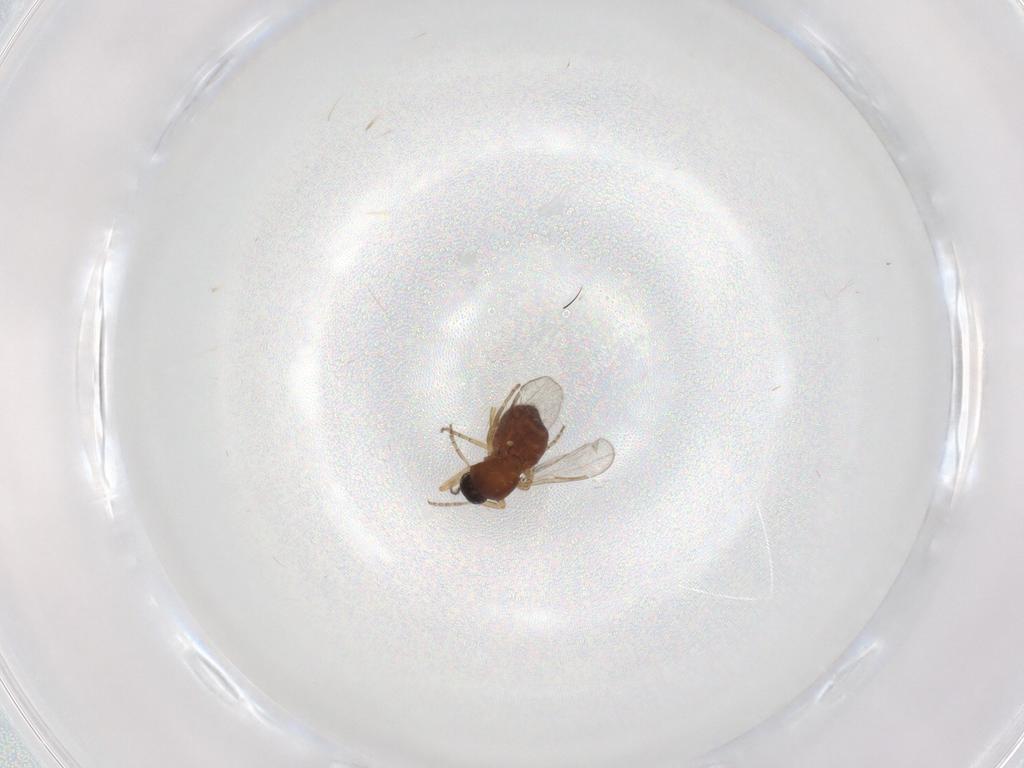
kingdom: Animalia
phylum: Arthropoda
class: Insecta
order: Diptera
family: Ceratopogonidae
